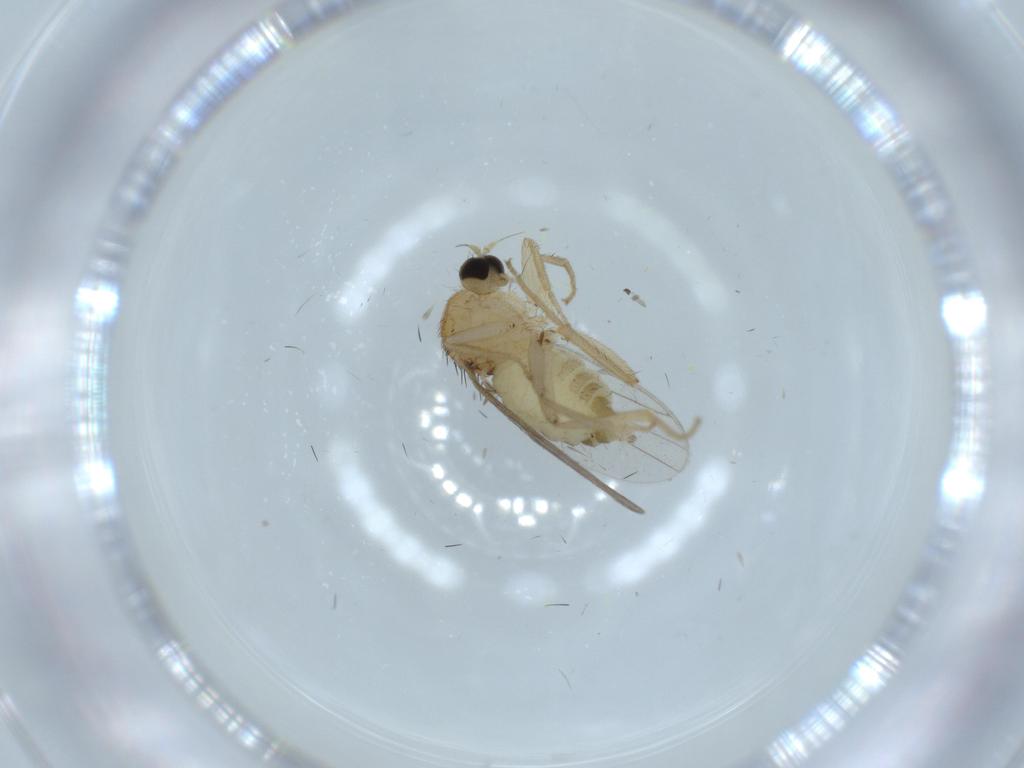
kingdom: Animalia
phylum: Arthropoda
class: Insecta
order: Diptera
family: Hybotidae
